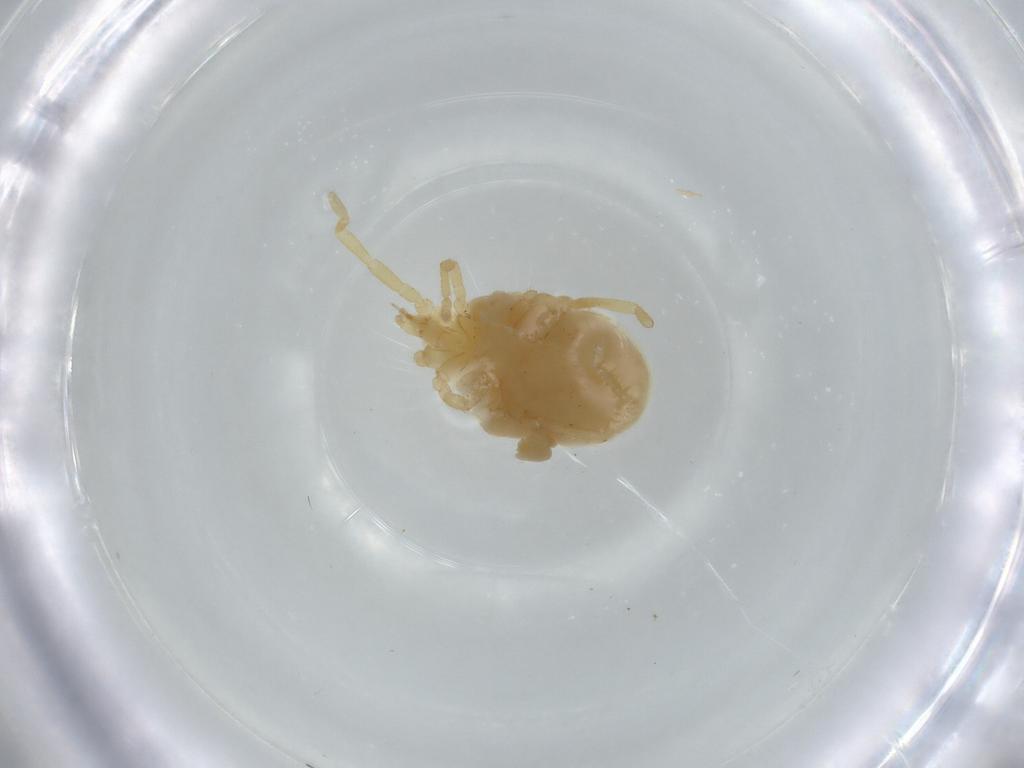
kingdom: Animalia
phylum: Arthropoda
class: Arachnida
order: Trombidiformes
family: Erythraeidae
